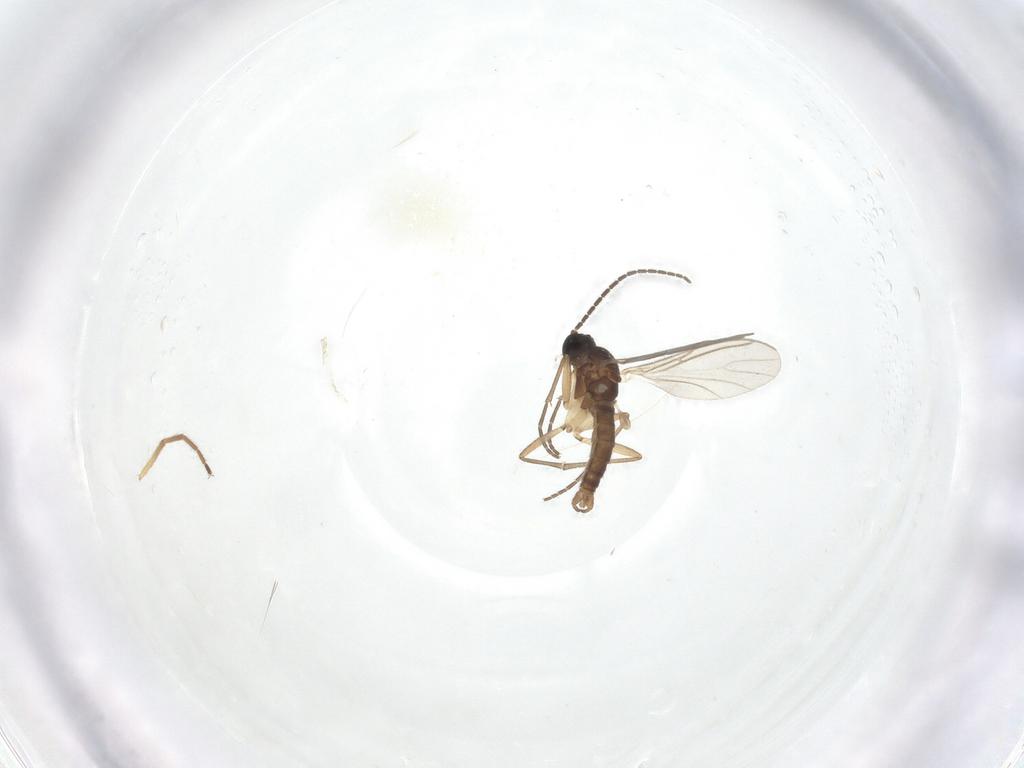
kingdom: Animalia
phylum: Arthropoda
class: Insecta
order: Diptera
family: Sciaridae
